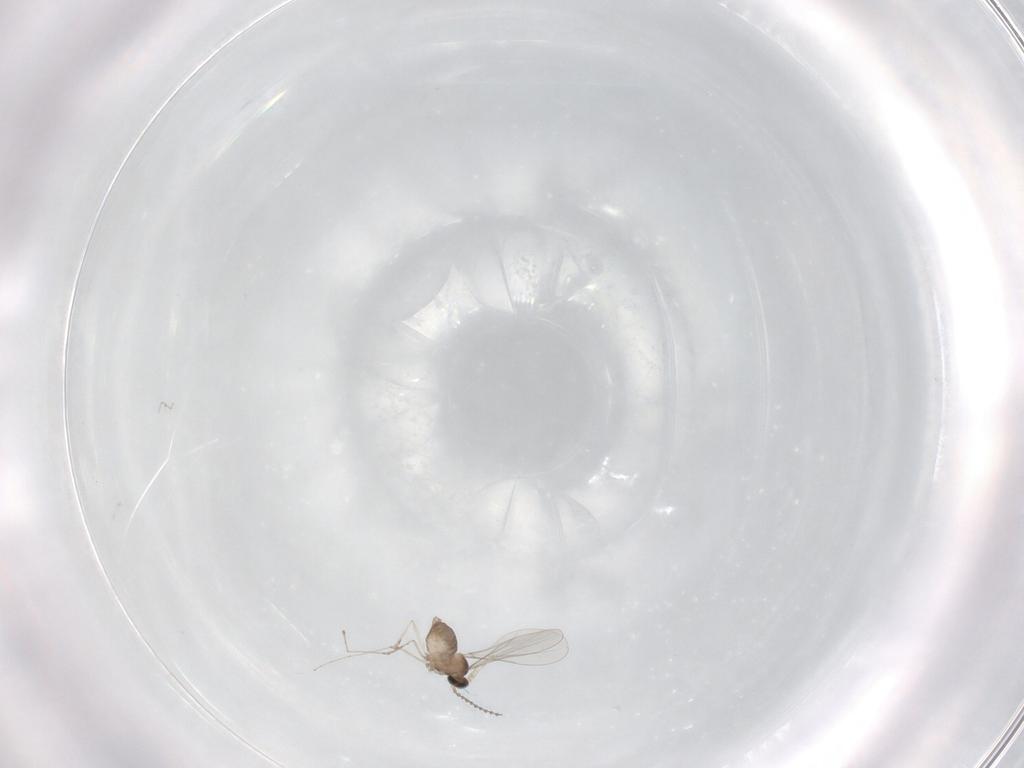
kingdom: Animalia
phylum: Arthropoda
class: Insecta
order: Diptera
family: Cecidomyiidae
